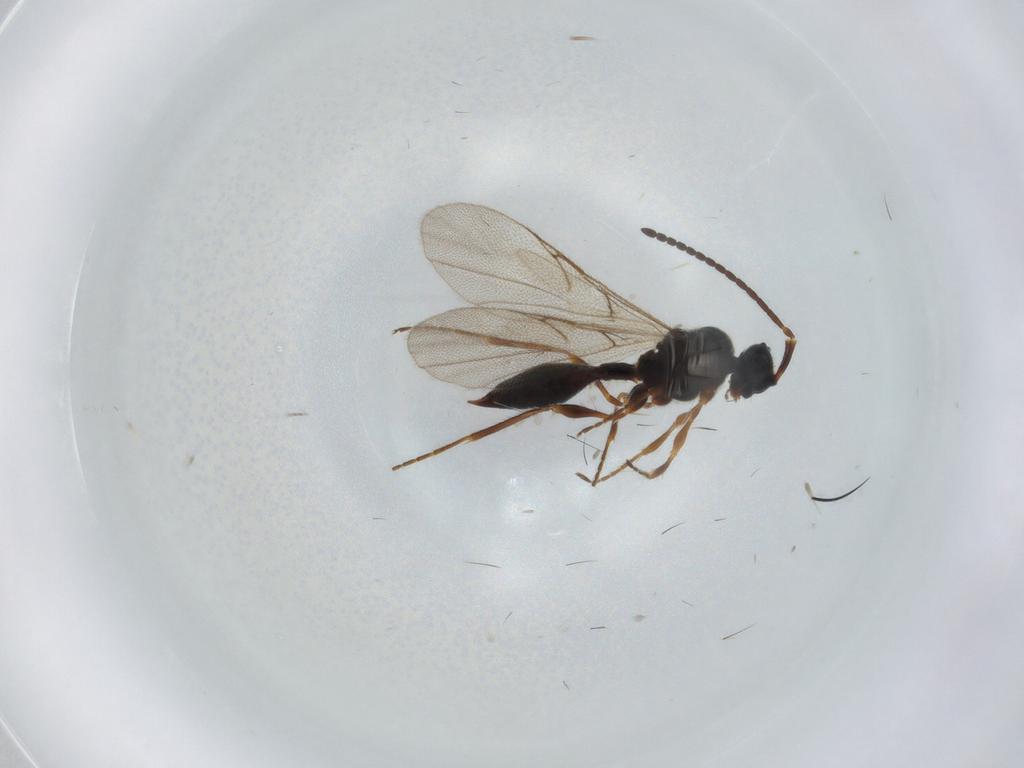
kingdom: Animalia
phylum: Arthropoda
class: Insecta
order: Hymenoptera
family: Diapriidae
